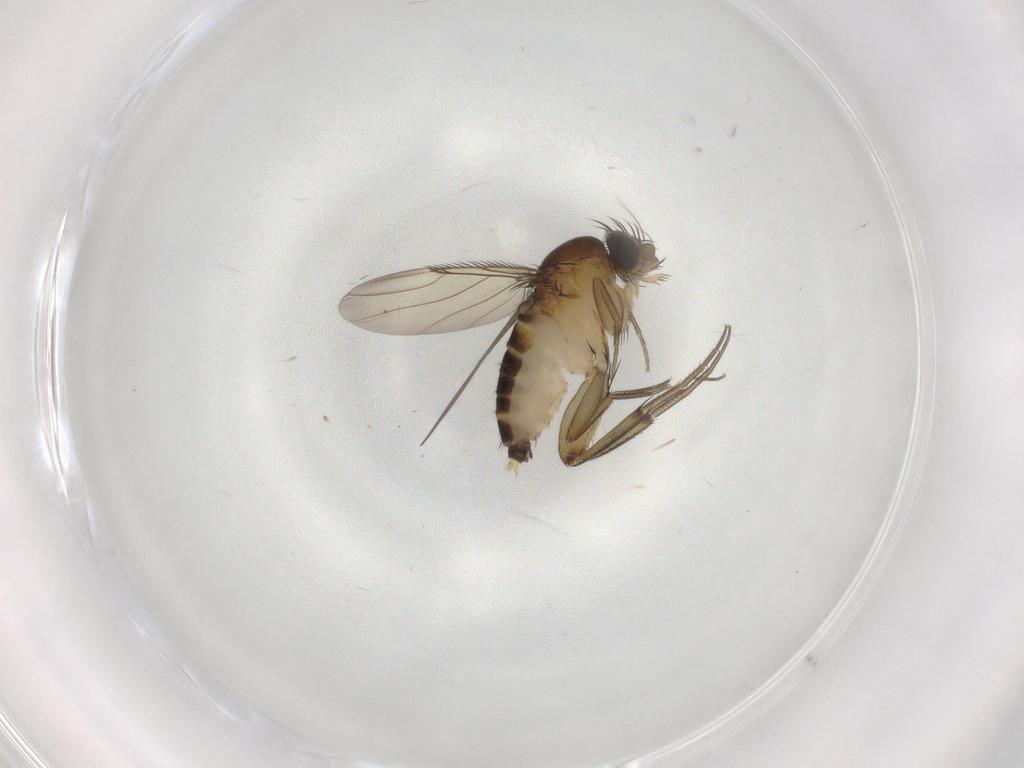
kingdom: Animalia
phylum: Arthropoda
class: Insecta
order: Diptera
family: Phoridae
